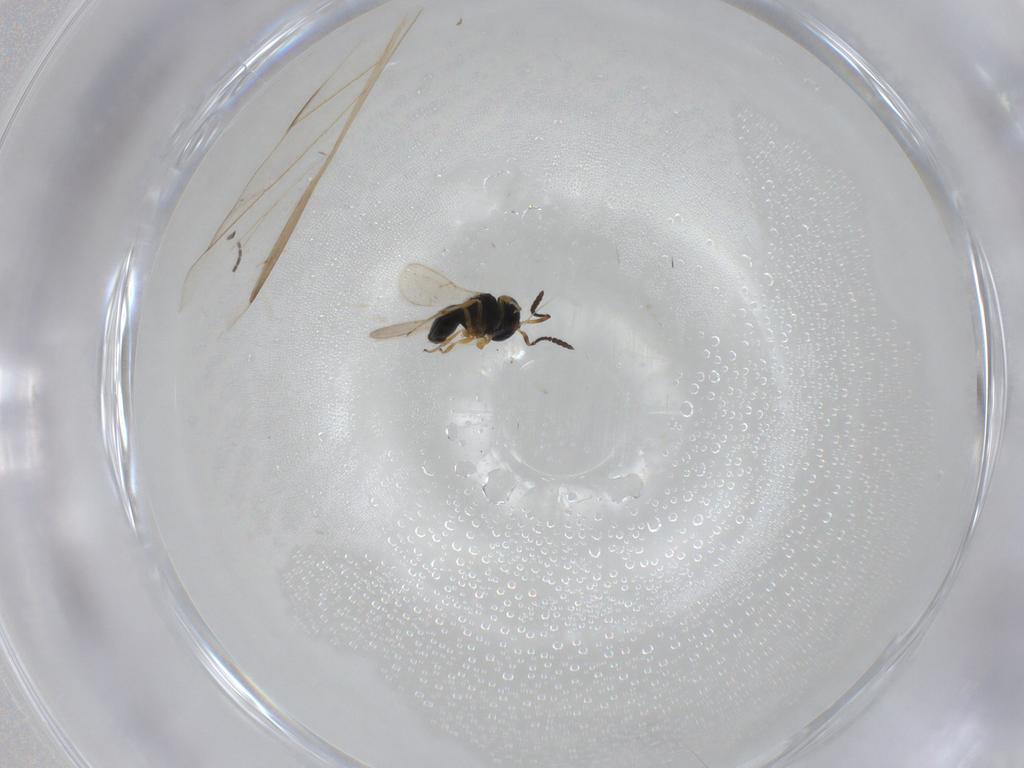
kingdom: Animalia
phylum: Arthropoda
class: Insecta
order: Hymenoptera
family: Scelionidae
